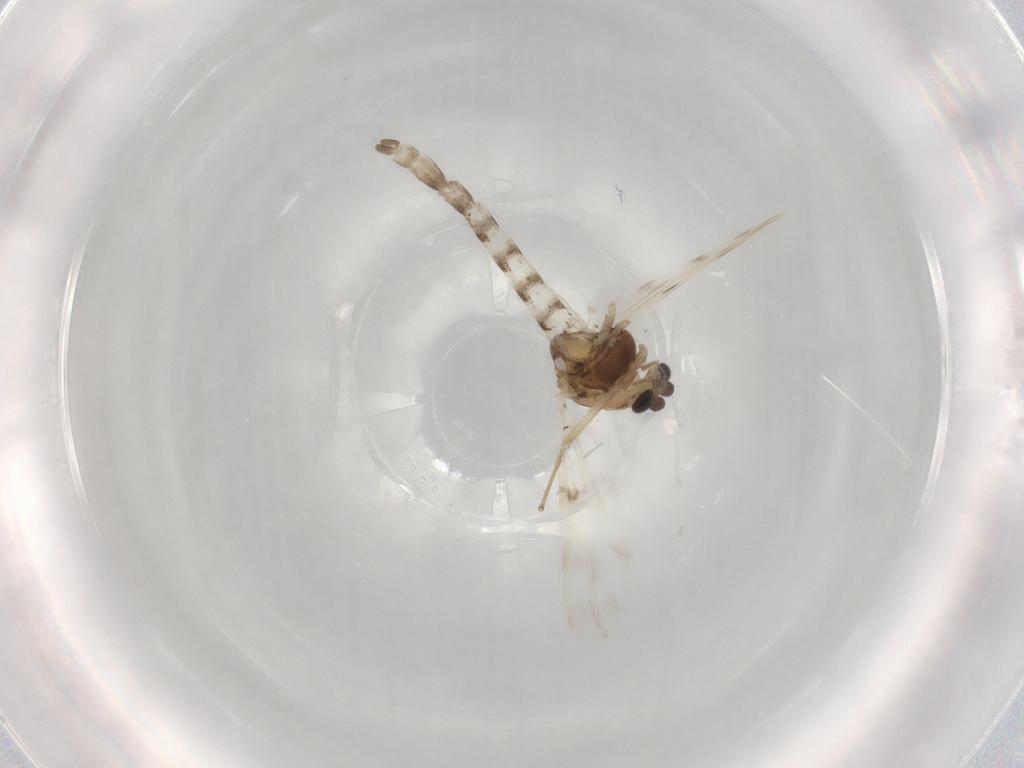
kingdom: Animalia
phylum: Arthropoda
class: Insecta
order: Diptera
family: Chironomidae
